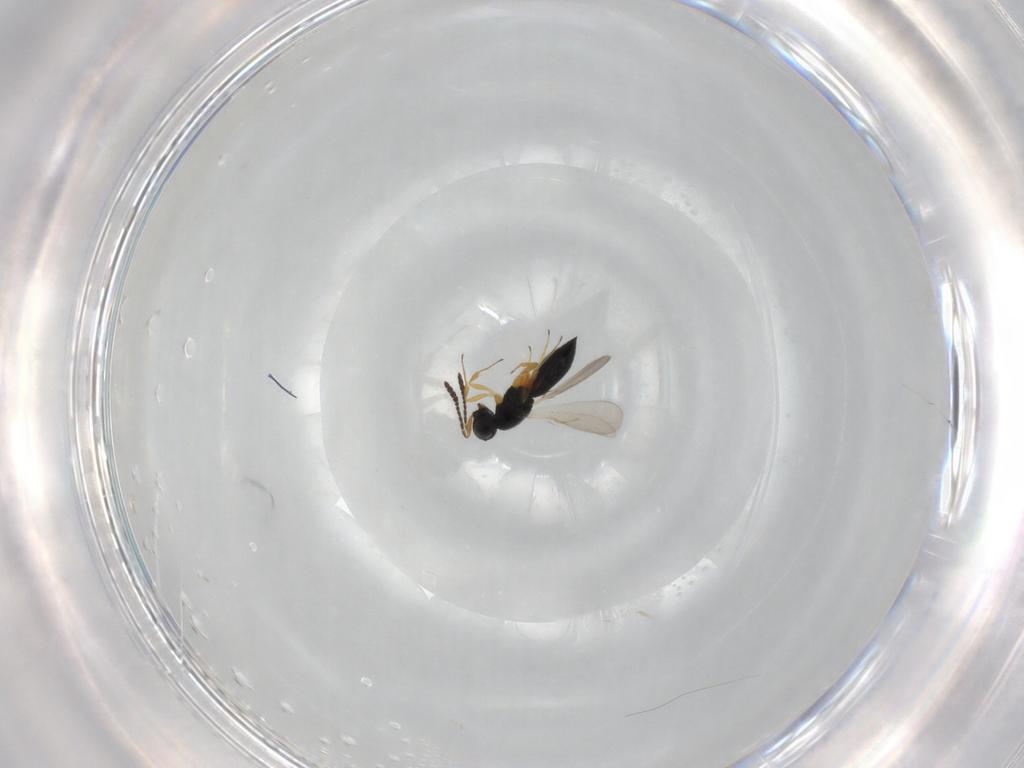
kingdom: Animalia
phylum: Arthropoda
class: Insecta
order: Hymenoptera
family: Scelionidae
